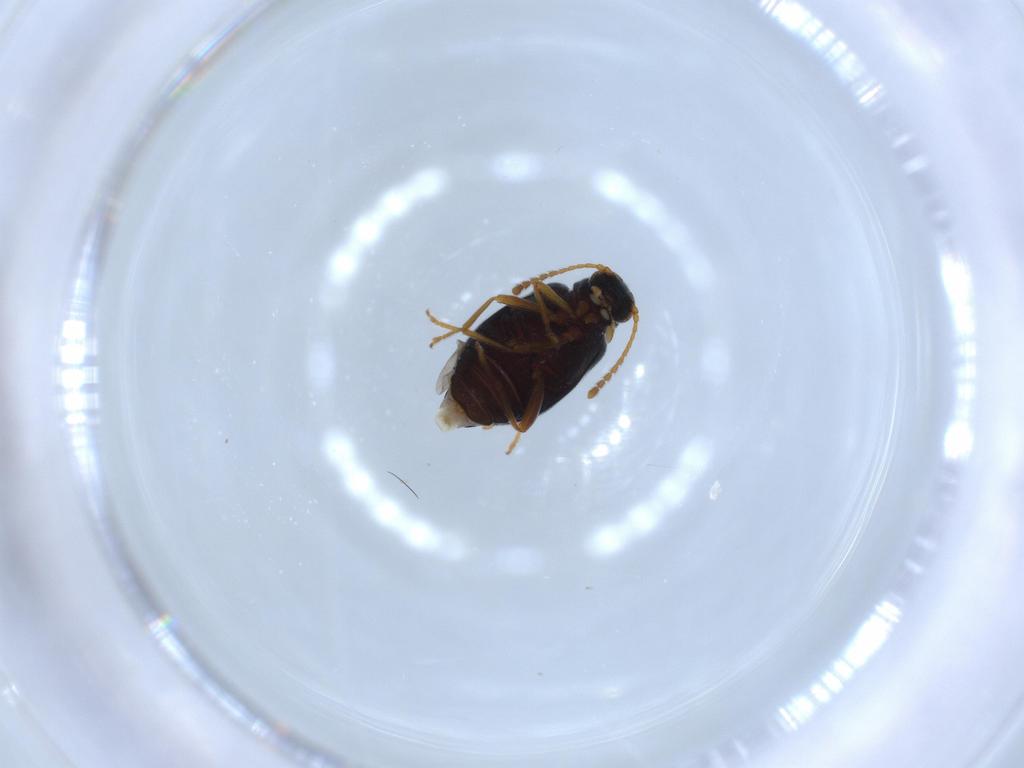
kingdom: Animalia
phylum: Arthropoda
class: Insecta
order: Coleoptera
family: Aderidae
